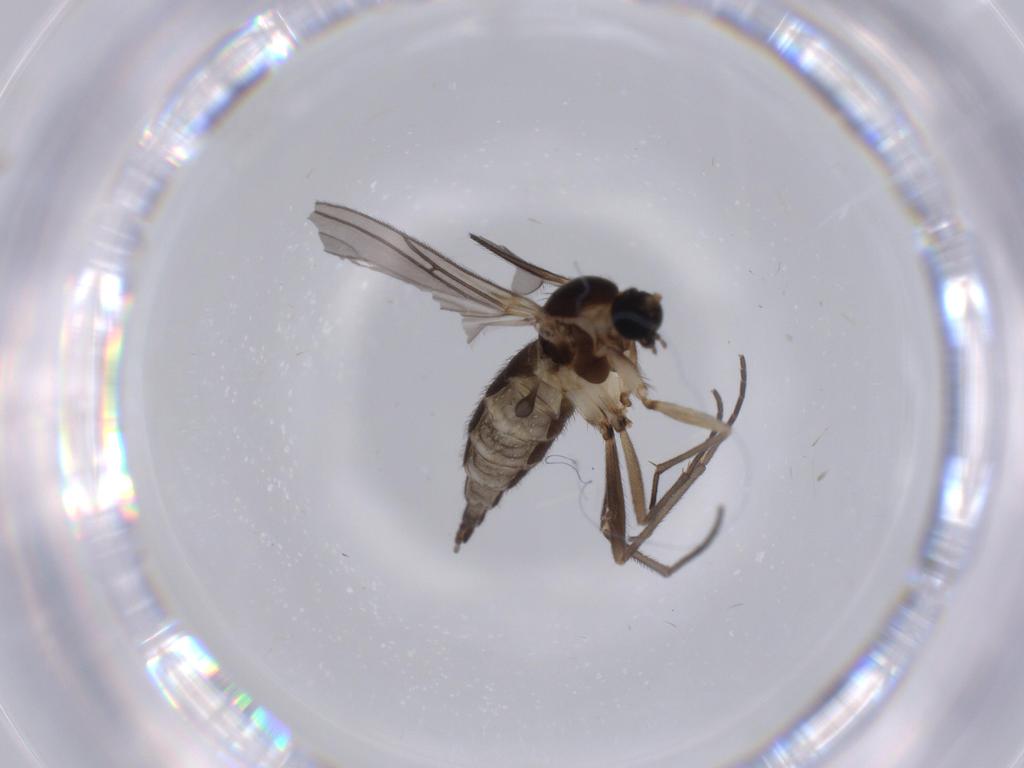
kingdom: Animalia
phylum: Arthropoda
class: Insecta
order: Diptera
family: Sciaridae
